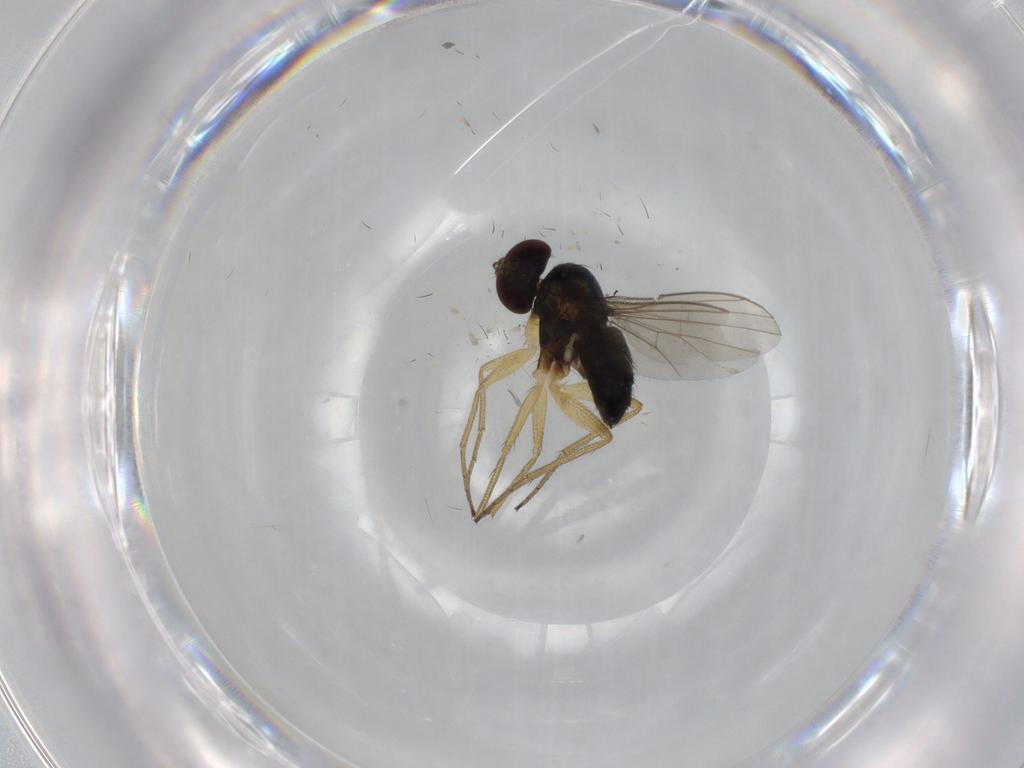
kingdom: Animalia
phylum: Arthropoda
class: Insecta
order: Diptera
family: Dolichopodidae
